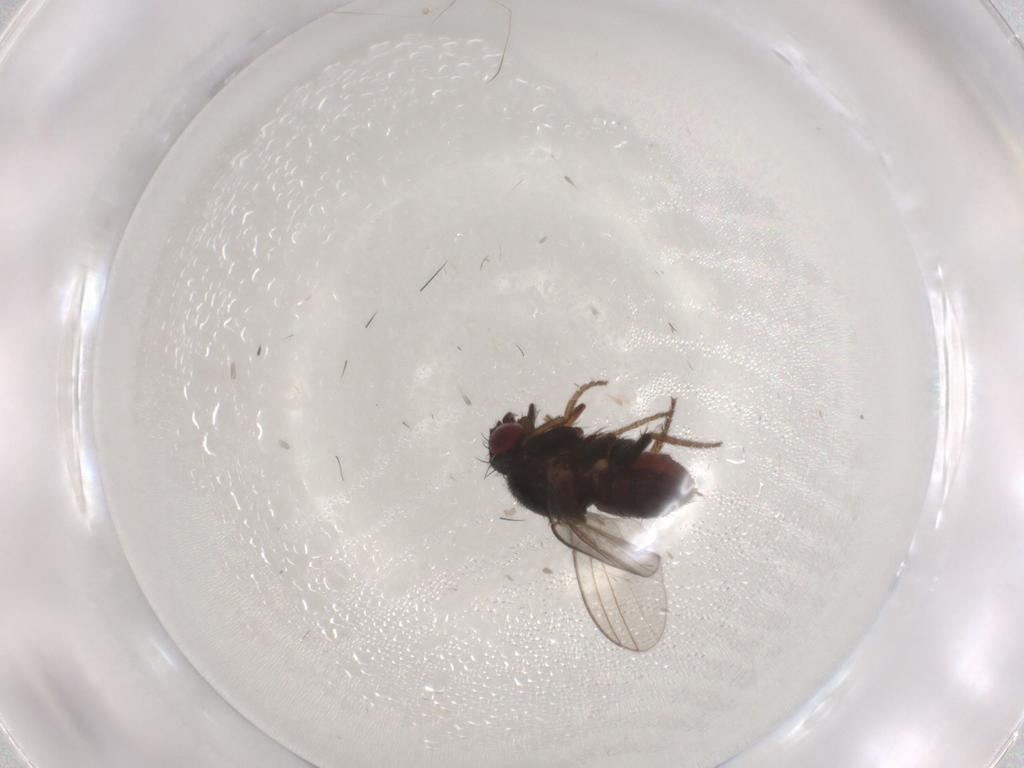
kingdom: Animalia
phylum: Arthropoda
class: Insecta
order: Diptera
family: Milichiidae
